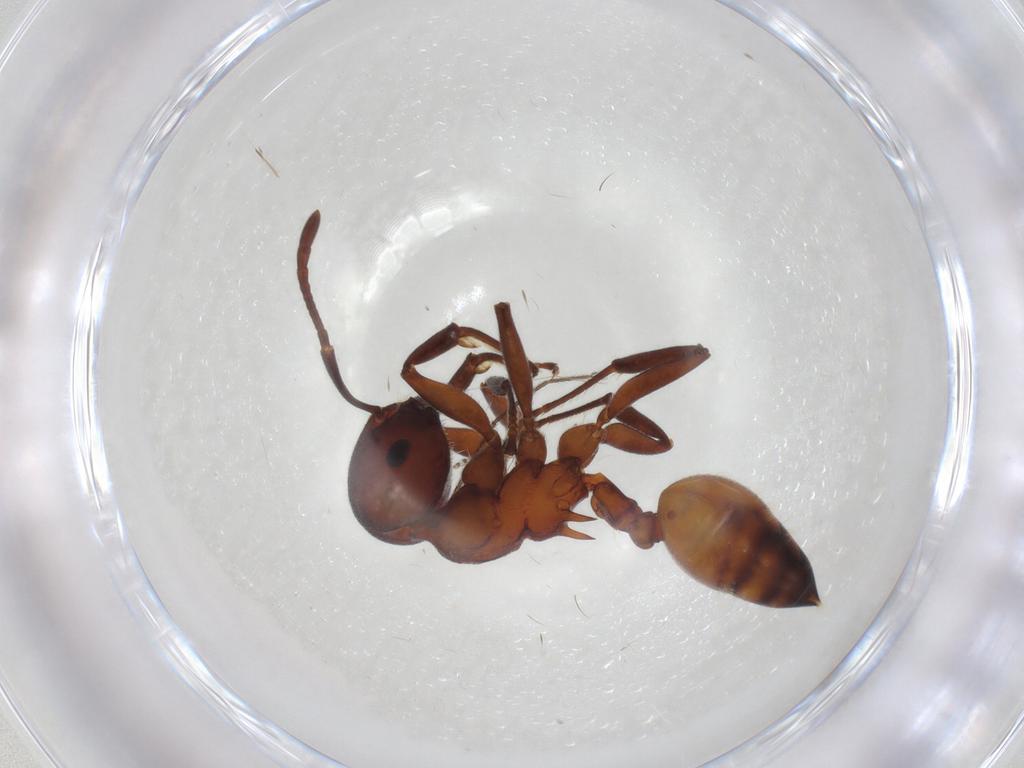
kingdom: Animalia
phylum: Arthropoda
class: Insecta
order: Hymenoptera
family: Formicidae
